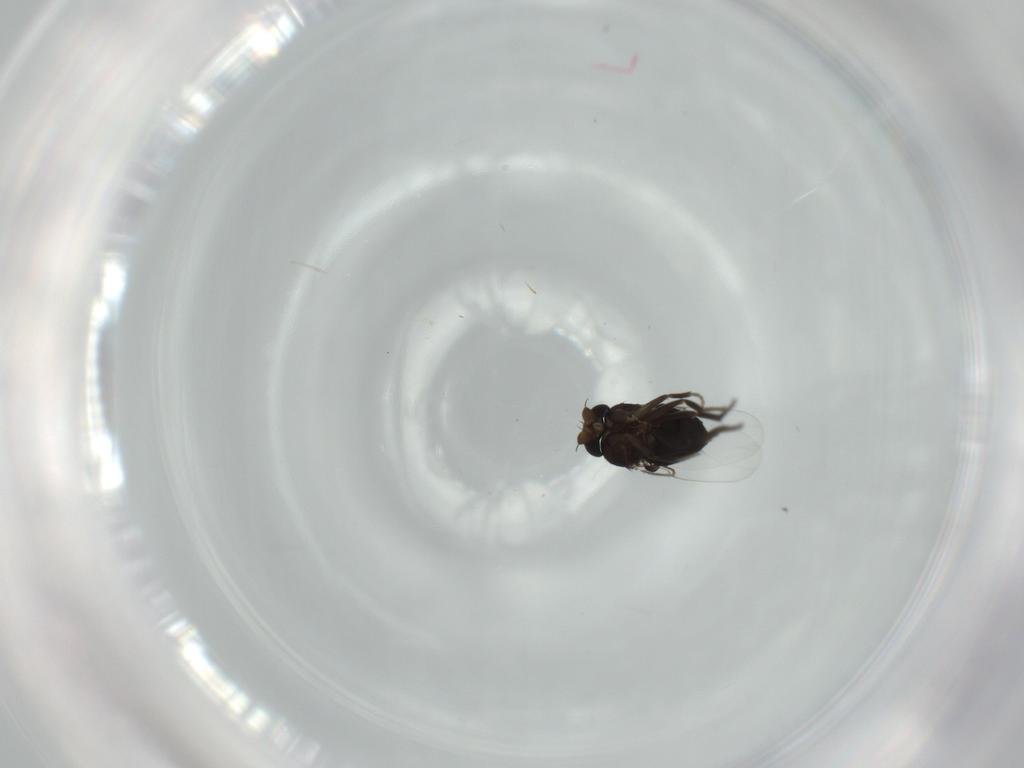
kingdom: Animalia
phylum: Arthropoda
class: Insecta
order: Diptera
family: Phoridae
